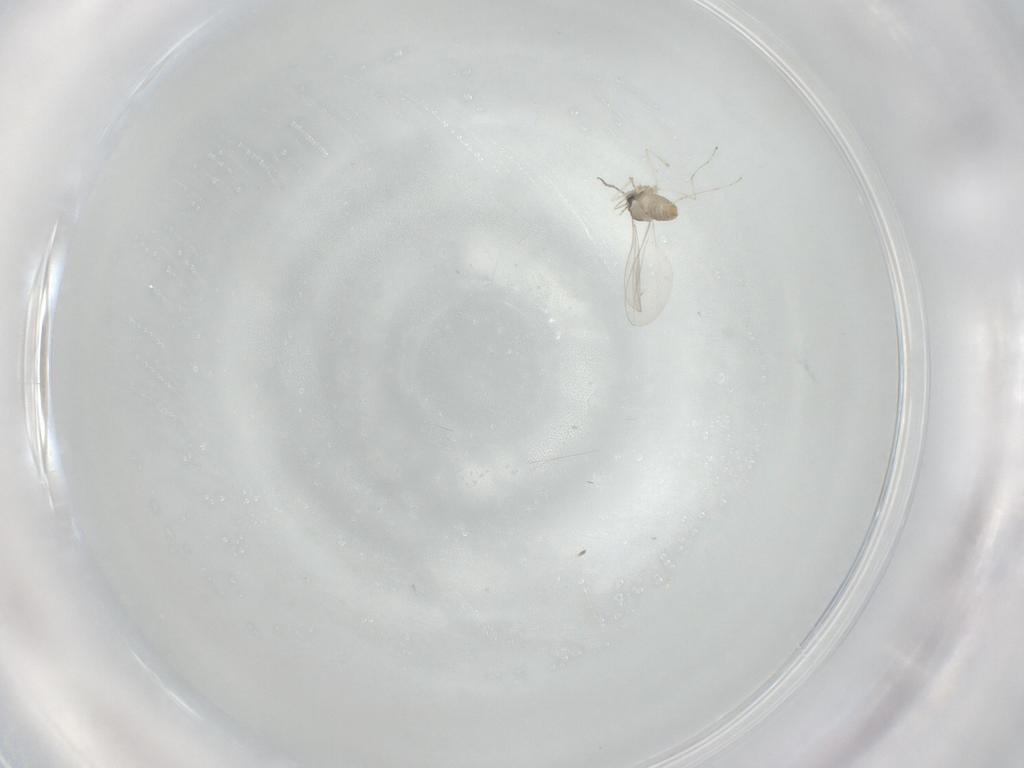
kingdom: Animalia
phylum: Arthropoda
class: Insecta
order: Diptera
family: Cecidomyiidae
